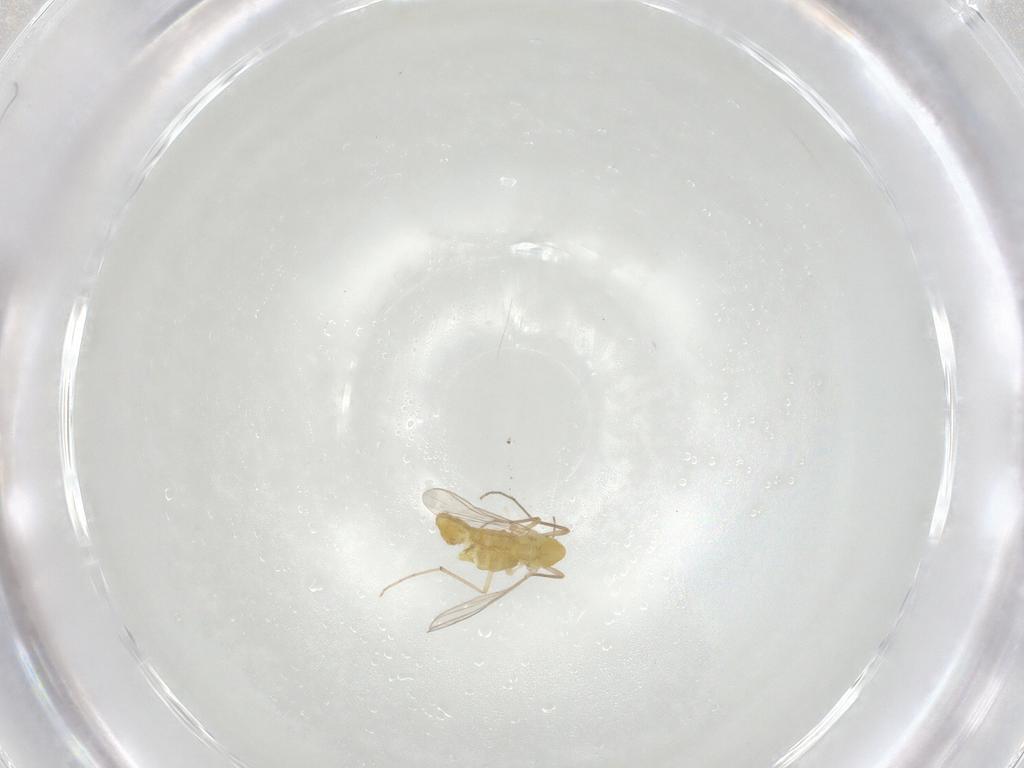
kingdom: Animalia
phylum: Arthropoda
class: Insecta
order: Diptera
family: Chironomidae
